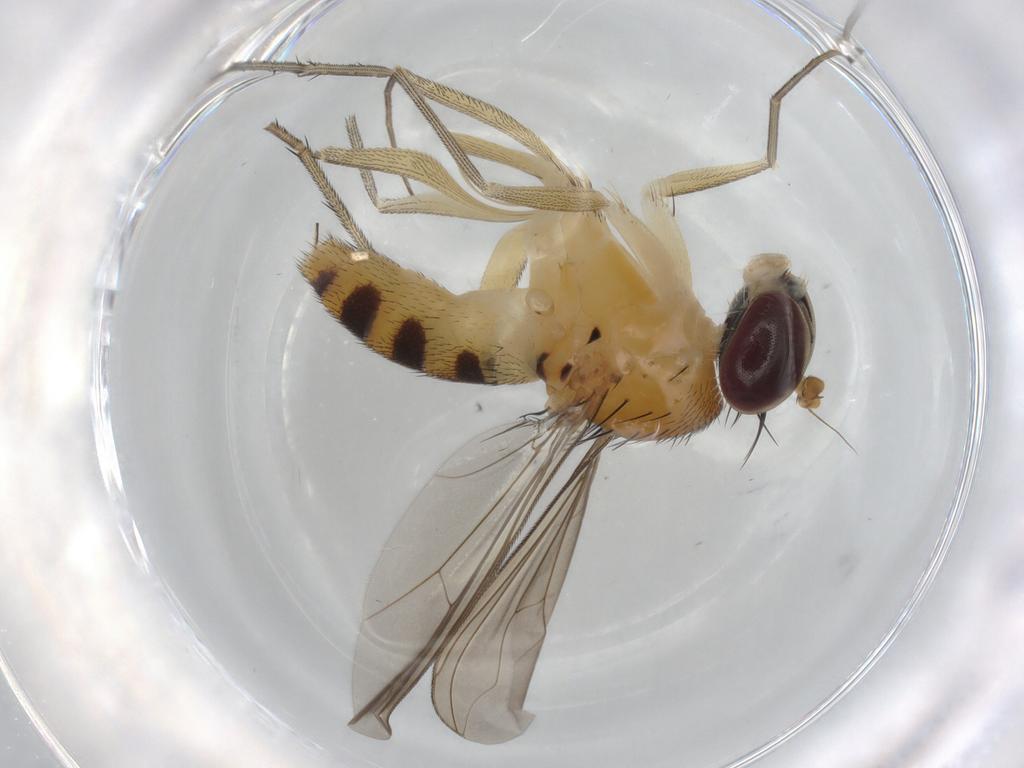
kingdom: Animalia
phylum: Arthropoda
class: Insecta
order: Diptera
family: Dolichopodidae
